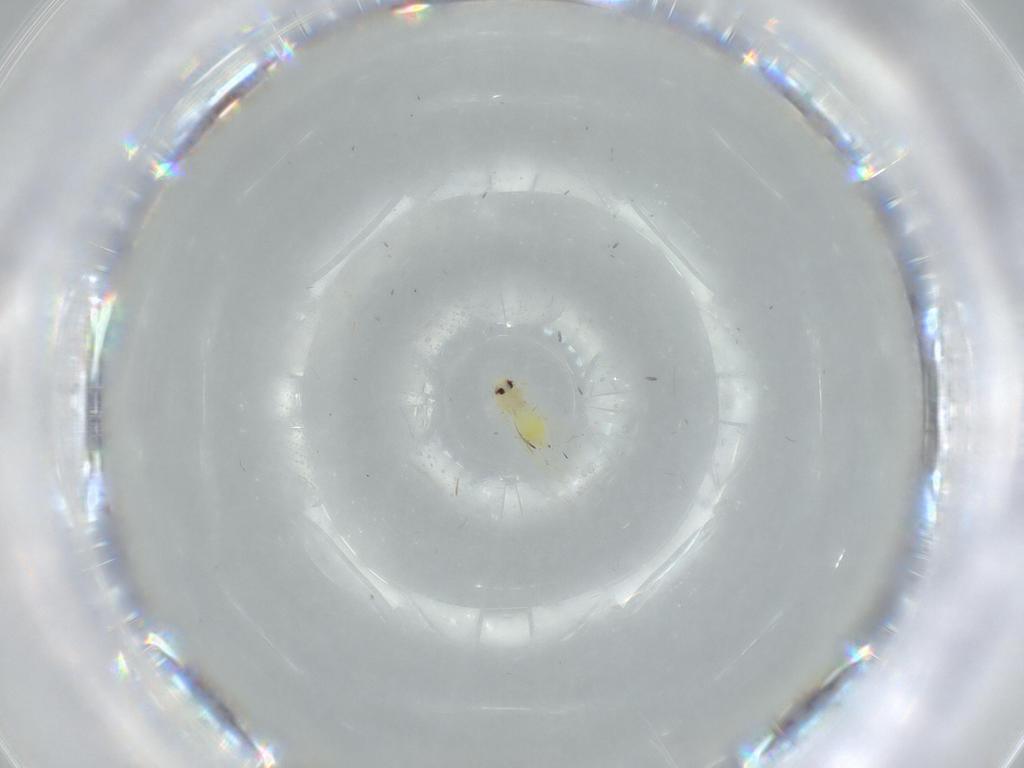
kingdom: Animalia
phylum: Arthropoda
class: Insecta
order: Hemiptera
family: Aleyrodidae
